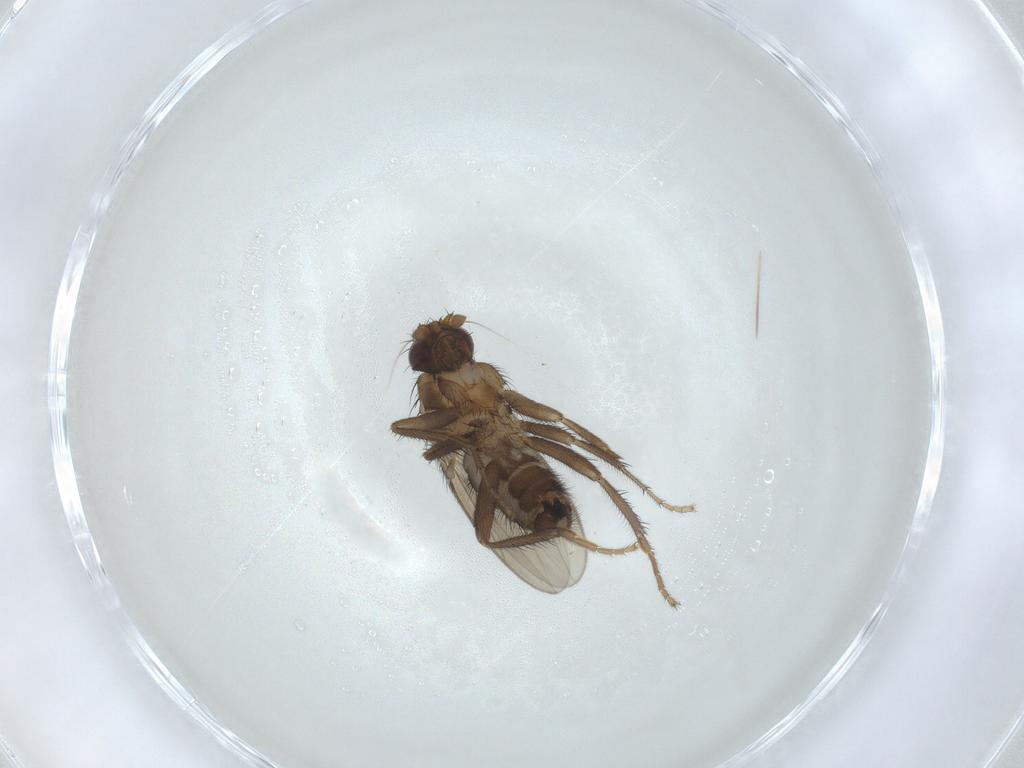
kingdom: Animalia
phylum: Arthropoda
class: Insecta
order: Diptera
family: Sphaeroceridae
